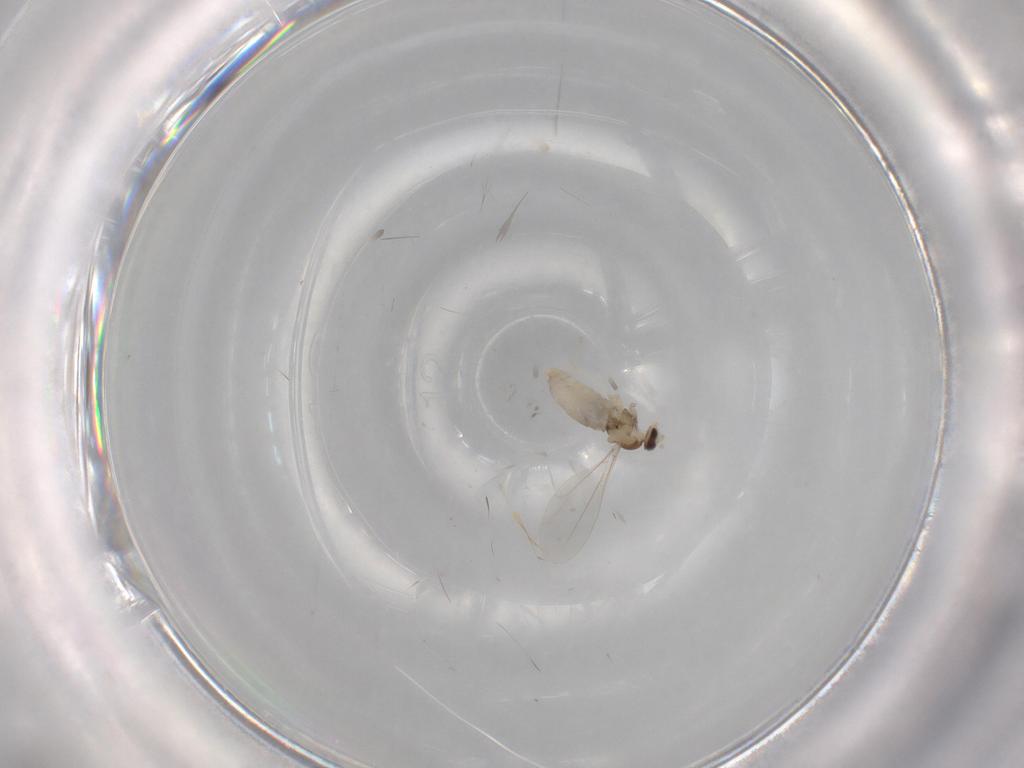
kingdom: Animalia
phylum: Arthropoda
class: Insecta
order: Diptera
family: Cecidomyiidae
